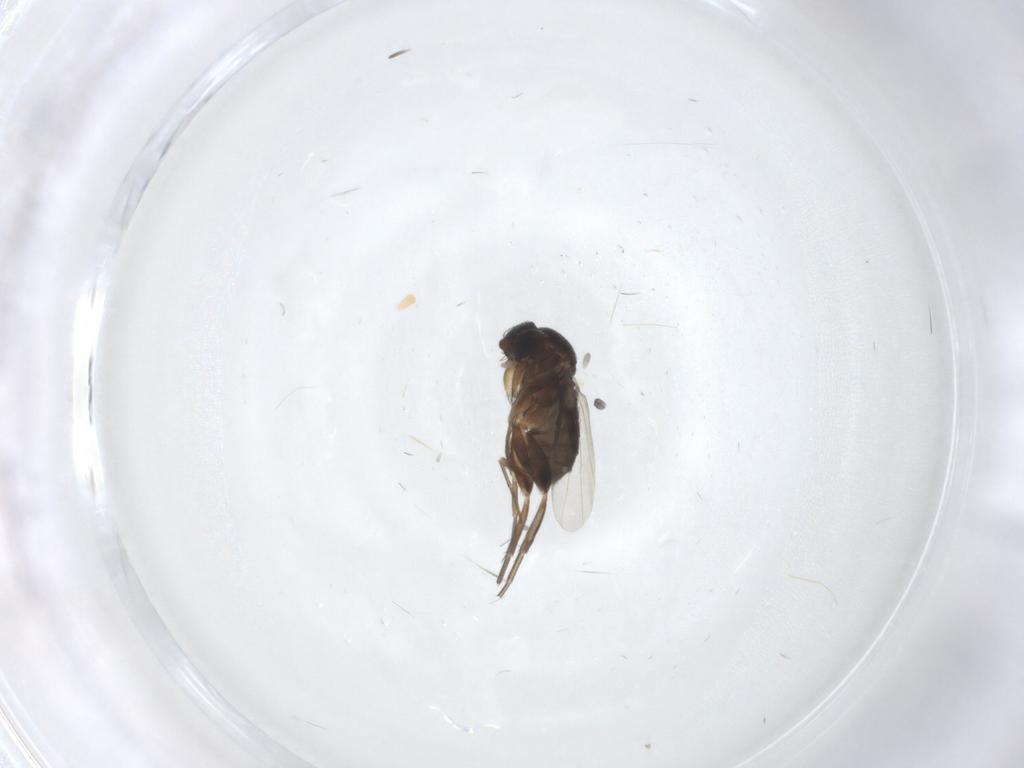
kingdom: Animalia
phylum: Arthropoda
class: Insecta
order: Diptera
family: Phoridae
